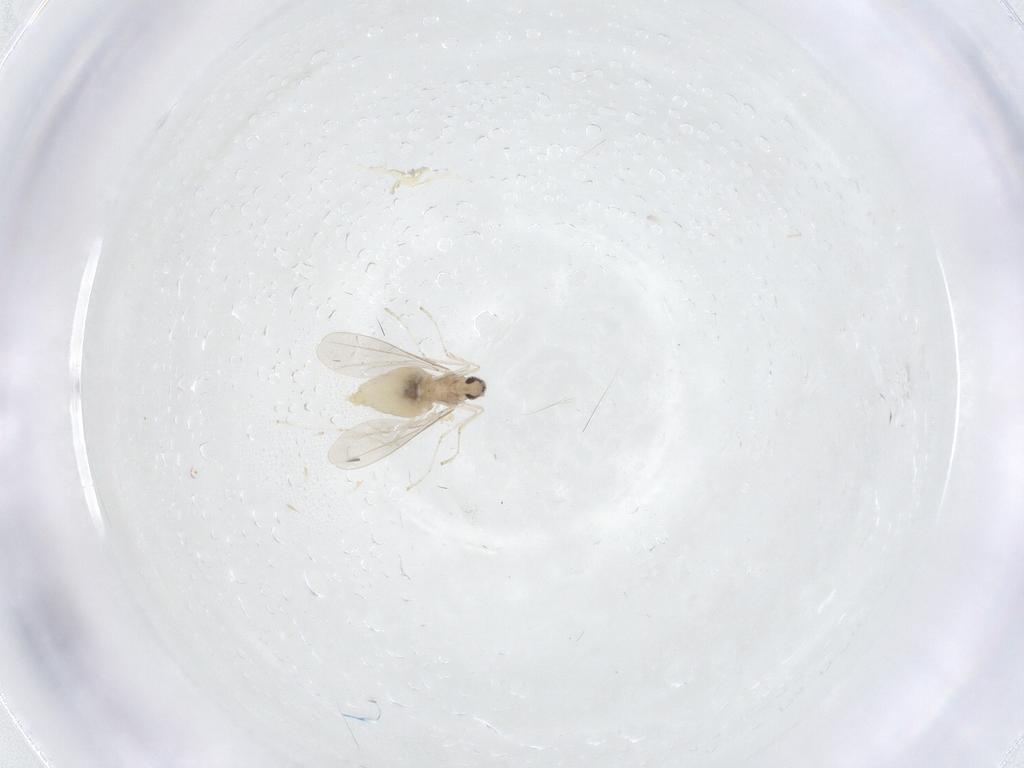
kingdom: Animalia
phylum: Arthropoda
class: Insecta
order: Diptera
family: Cecidomyiidae
